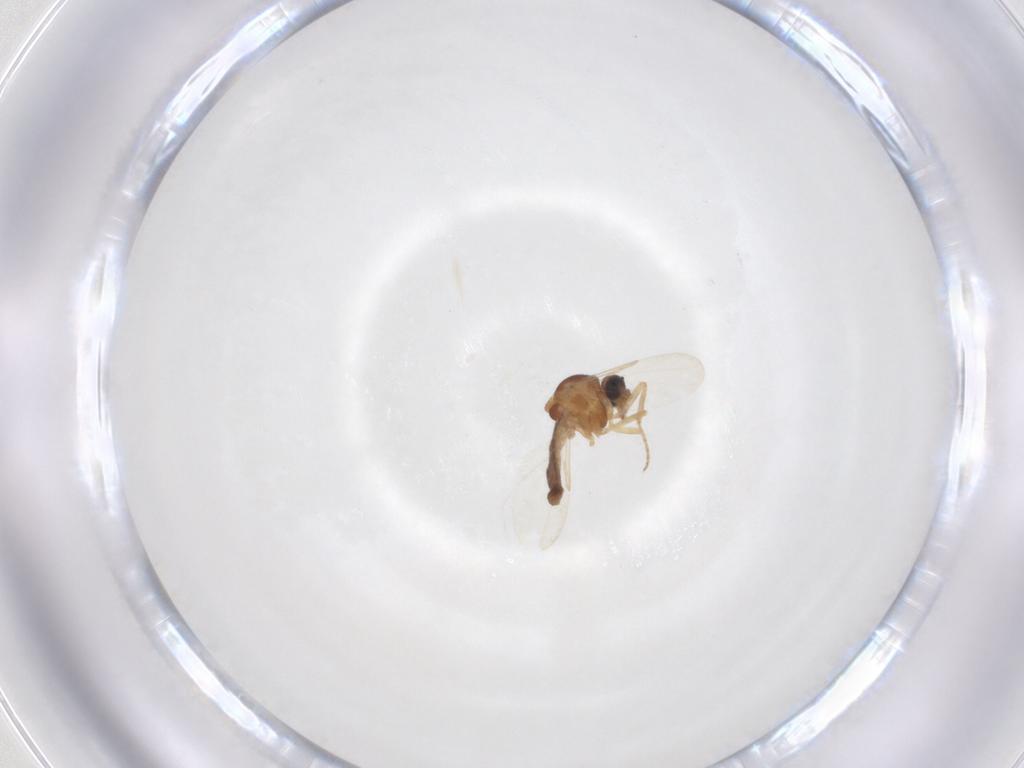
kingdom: Animalia
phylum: Arthropoda
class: Insecta
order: Diptera
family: Ceratopogonidae
